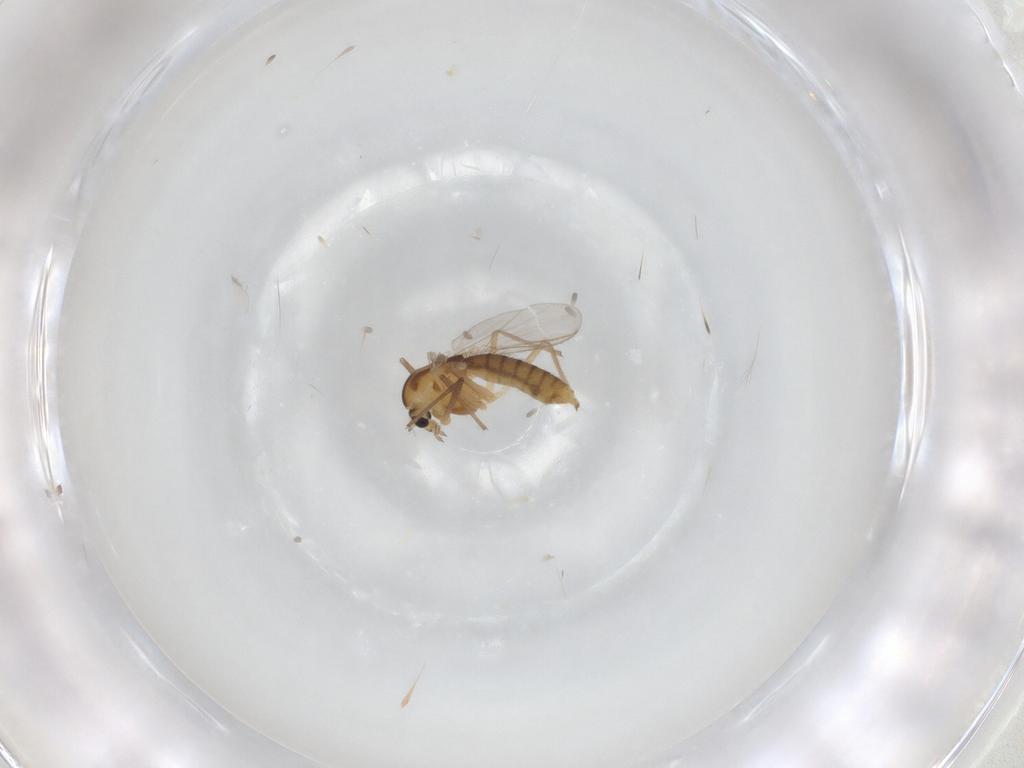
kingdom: Animalia
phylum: Arthropoda
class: Insecta
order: Diptera
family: Chironomidae
